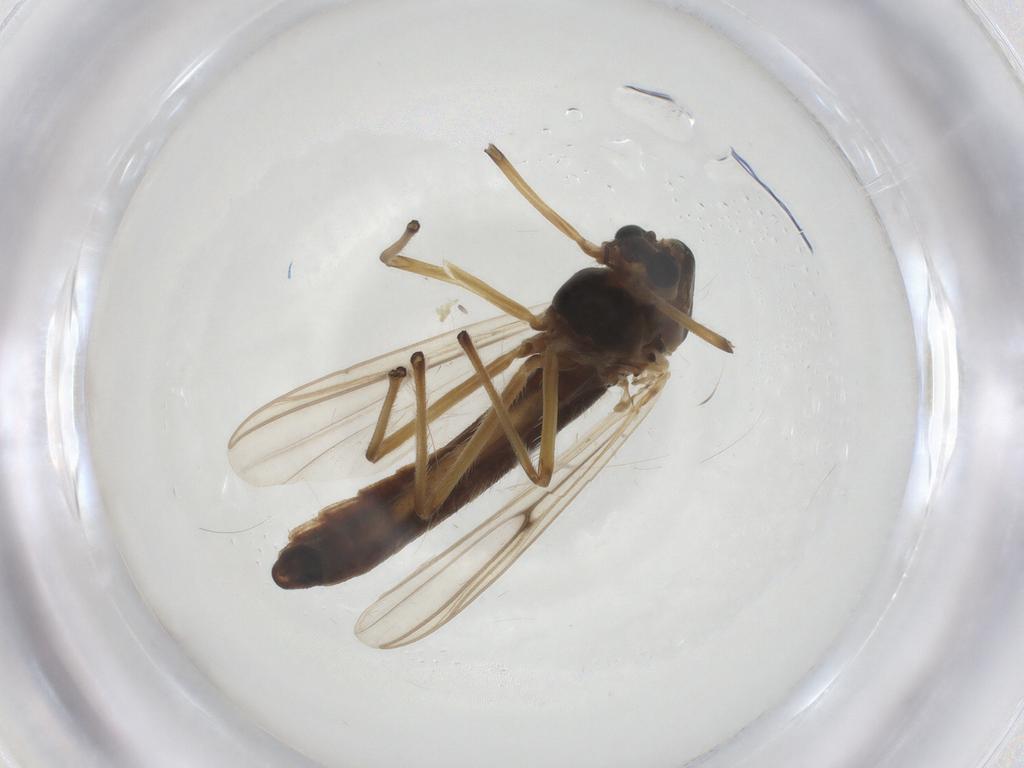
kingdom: Animalia
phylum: Arthropoda
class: Insecta
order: Diptera
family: Chironomidae
